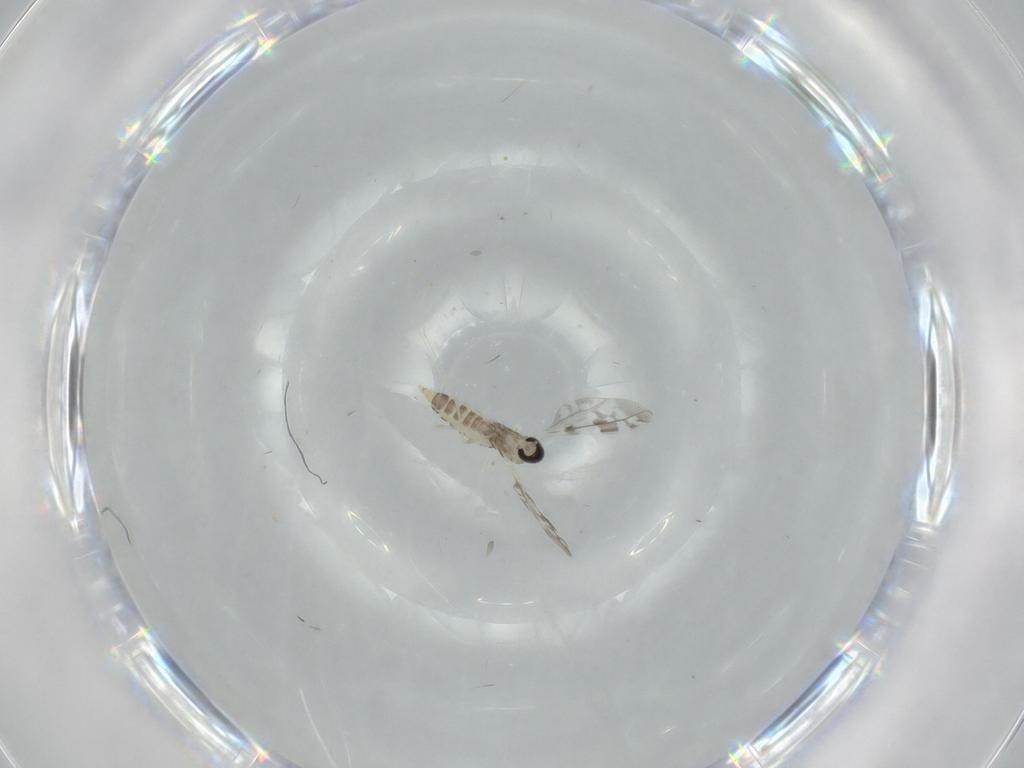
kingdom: Animalia
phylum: Arthropoda
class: Insecta
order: Diptera
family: Cecidomyiidae
